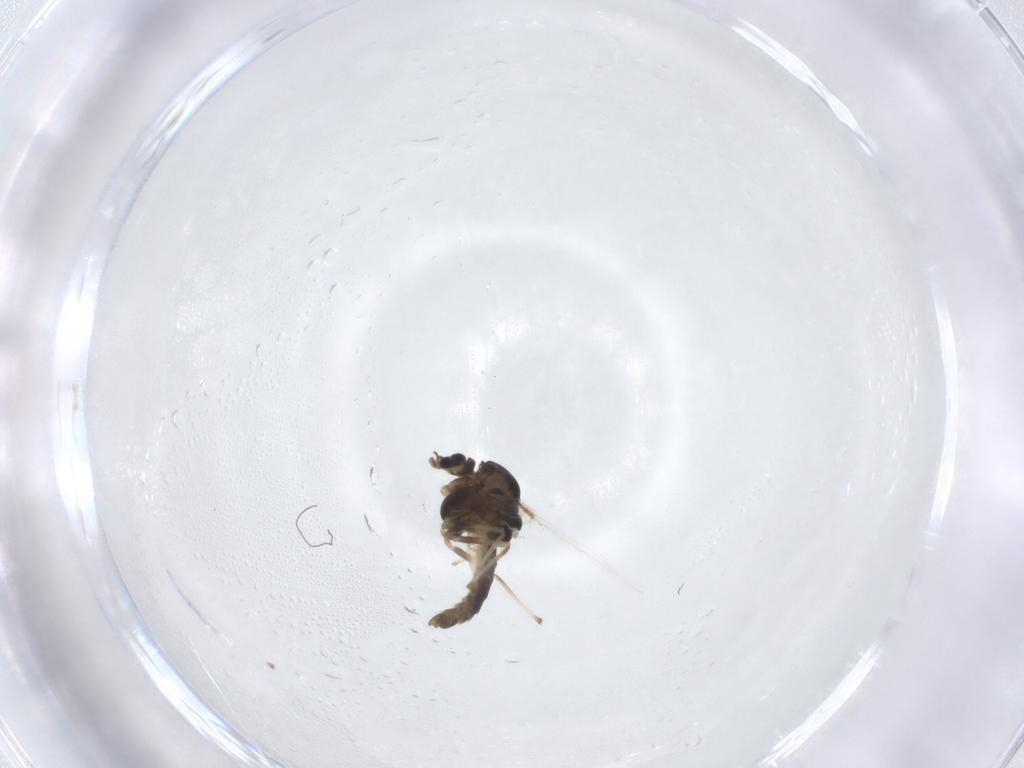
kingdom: Animalia
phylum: Arthropoda
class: Insecta
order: Diptera
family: Chironomidae
